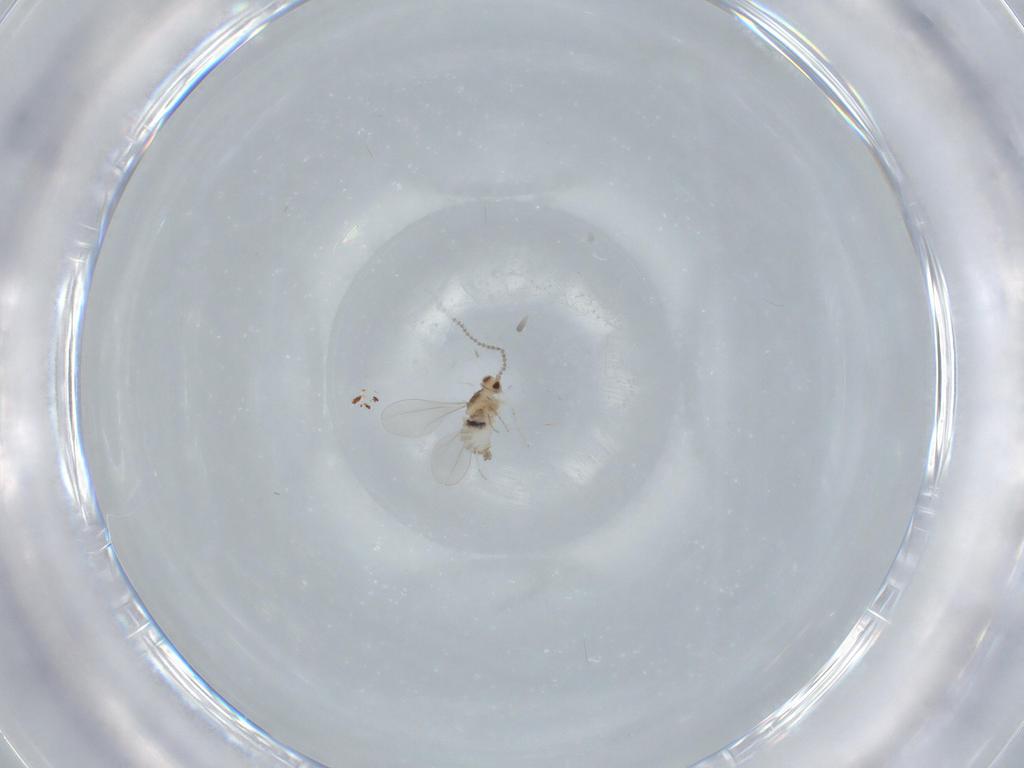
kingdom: Animalia
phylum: Arthropoda
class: Insecta
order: Diptera
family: Cecidomyiidae
